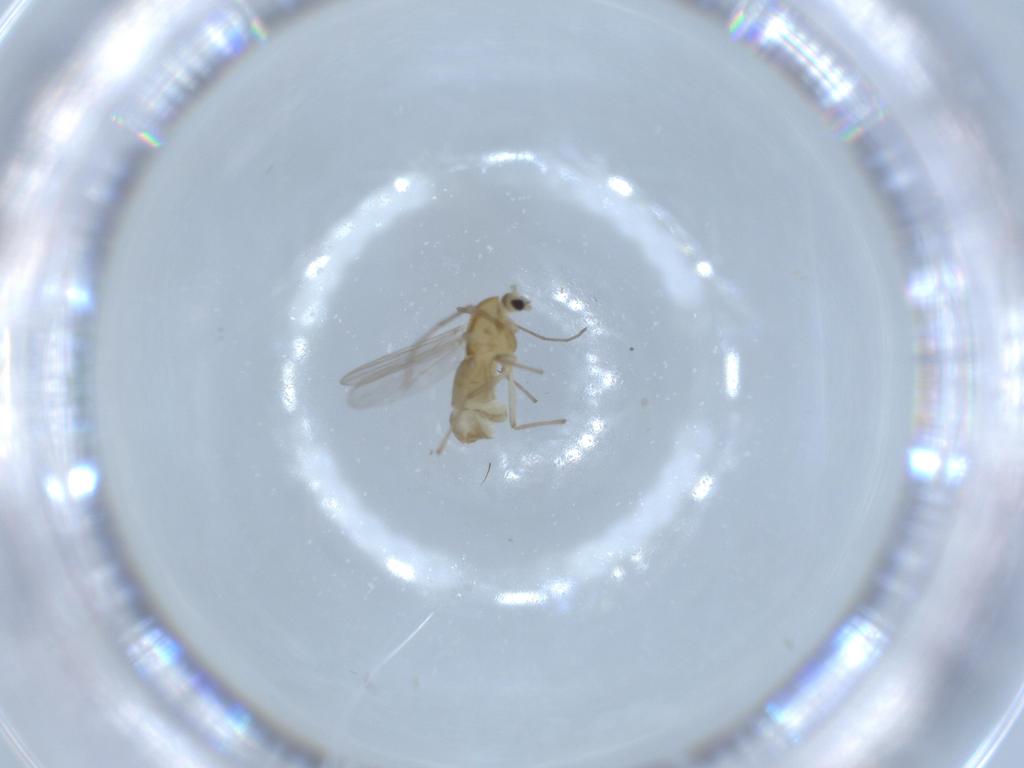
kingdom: Animalia
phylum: Arthropoda
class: Insecta
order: Diptera
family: Chironomidae
